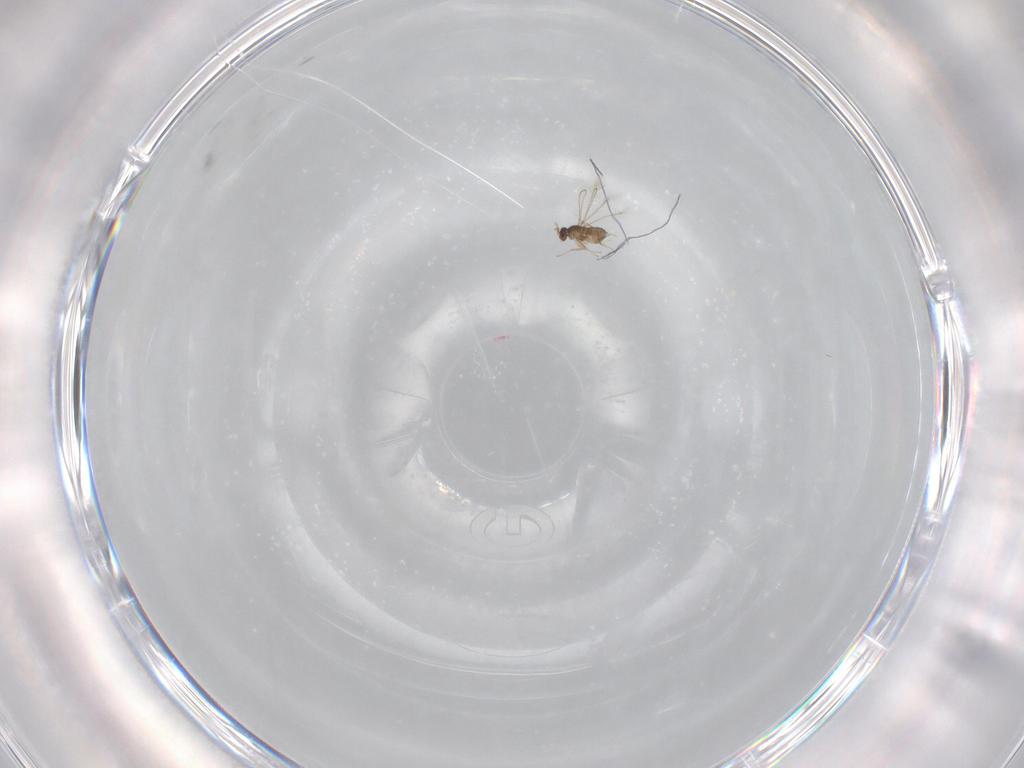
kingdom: Animalia
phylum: Arthropoda
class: Insecta
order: Hymenoptera
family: Mymaridae
